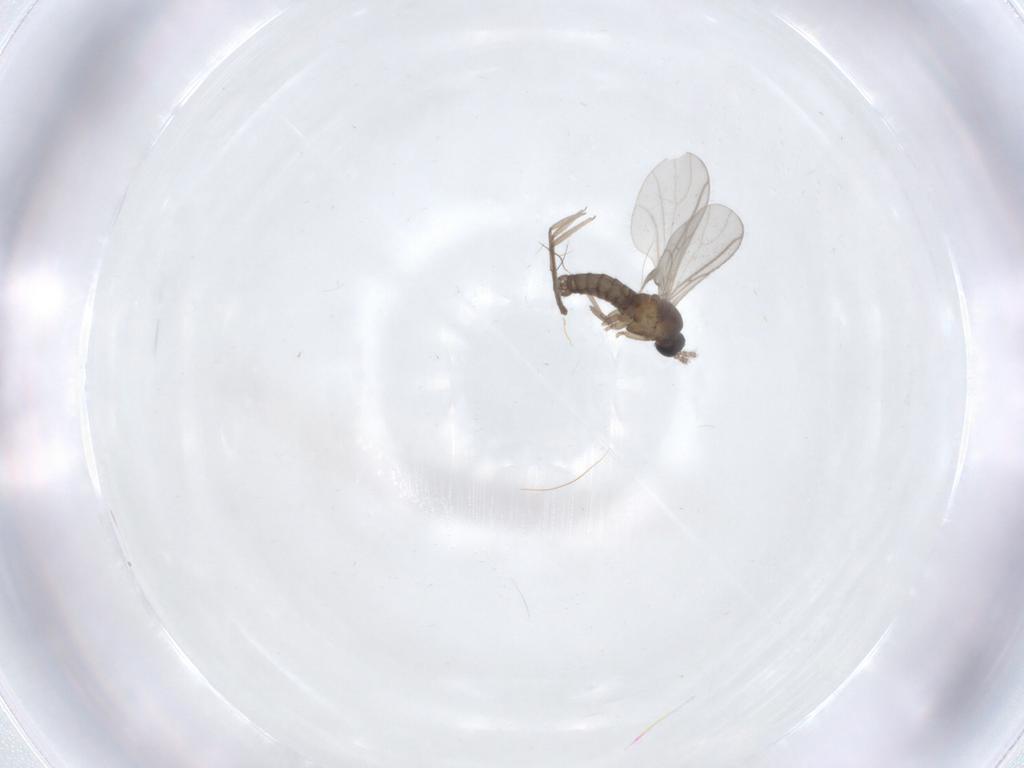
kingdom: Animalia
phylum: Arthropoda
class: Insecta
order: Diptera
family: Sciaridae
